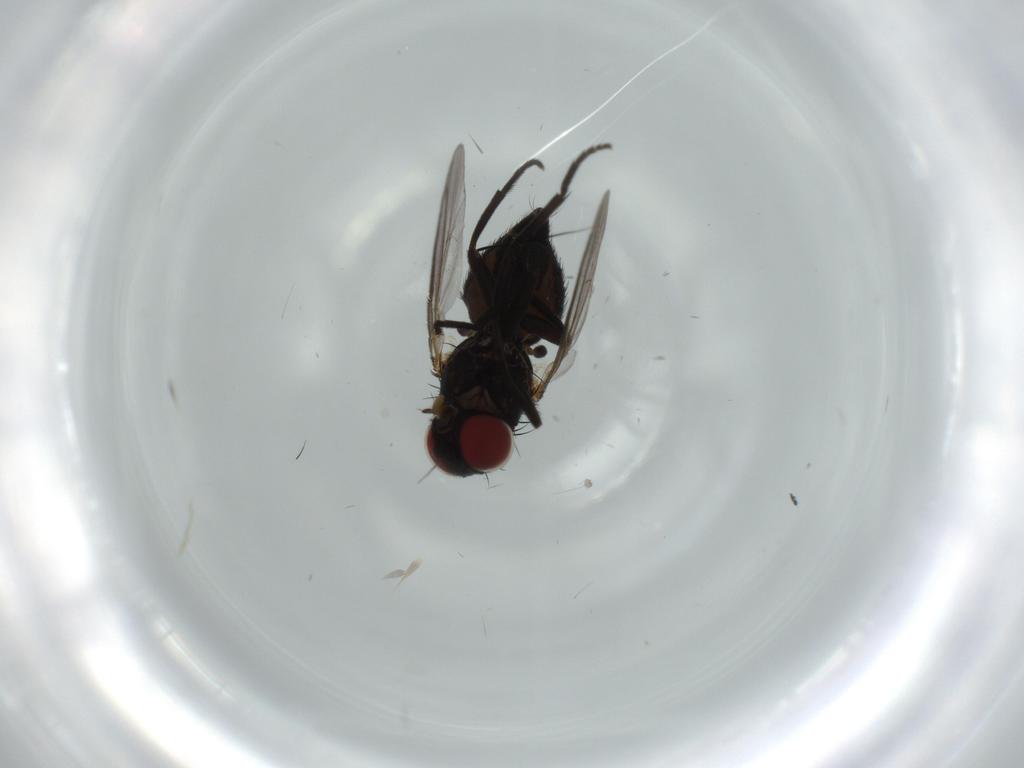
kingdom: Animalia
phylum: Arthropoda
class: Insecta
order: Diptera
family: Agromyzidae
